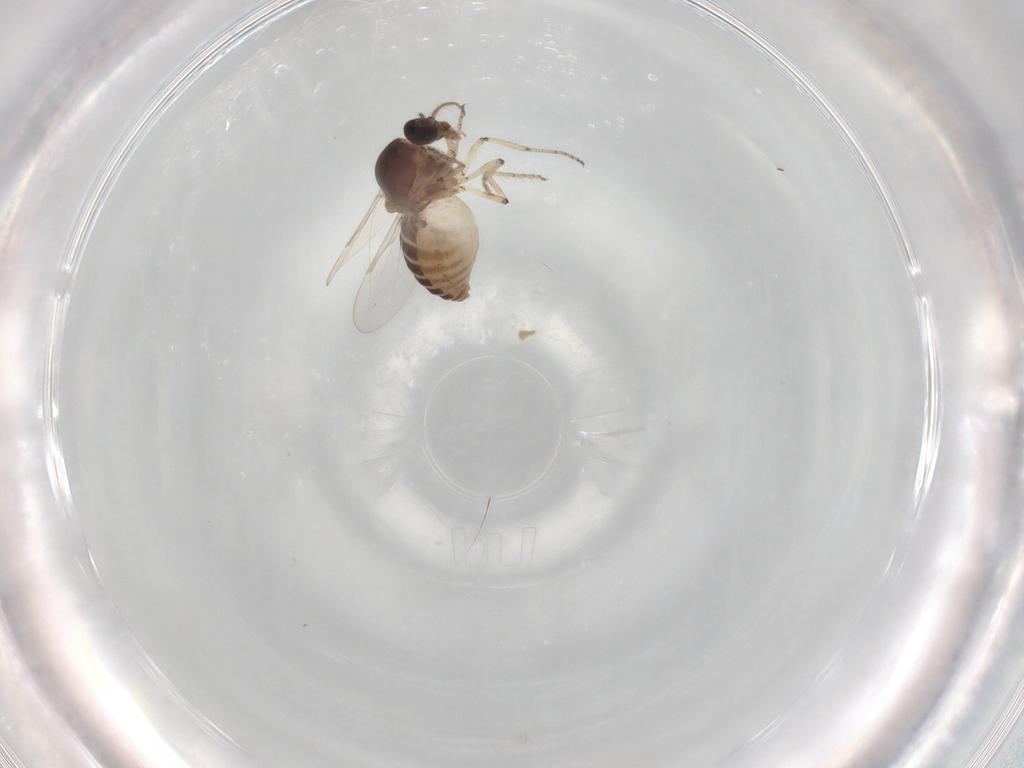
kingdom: Animalia
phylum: Arthropoda
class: Insecta
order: Diptera
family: Ceratopogonidae
